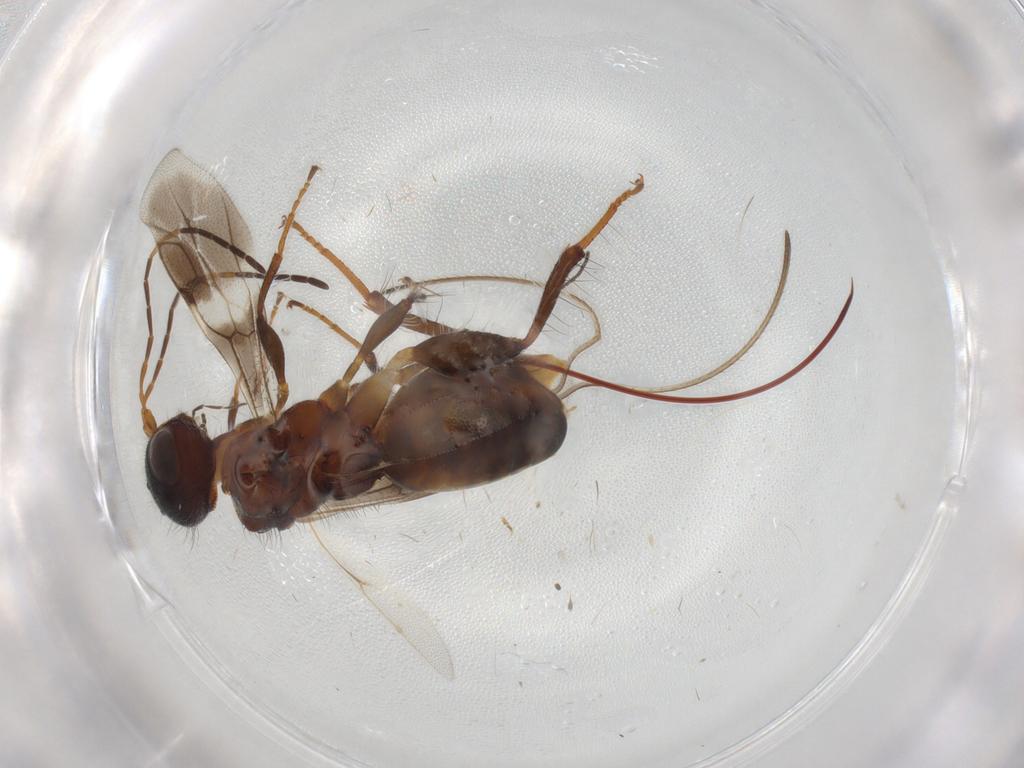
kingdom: Animalia
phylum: Arthropoda
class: Insecta
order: Hymenoptera
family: Megalyridae
